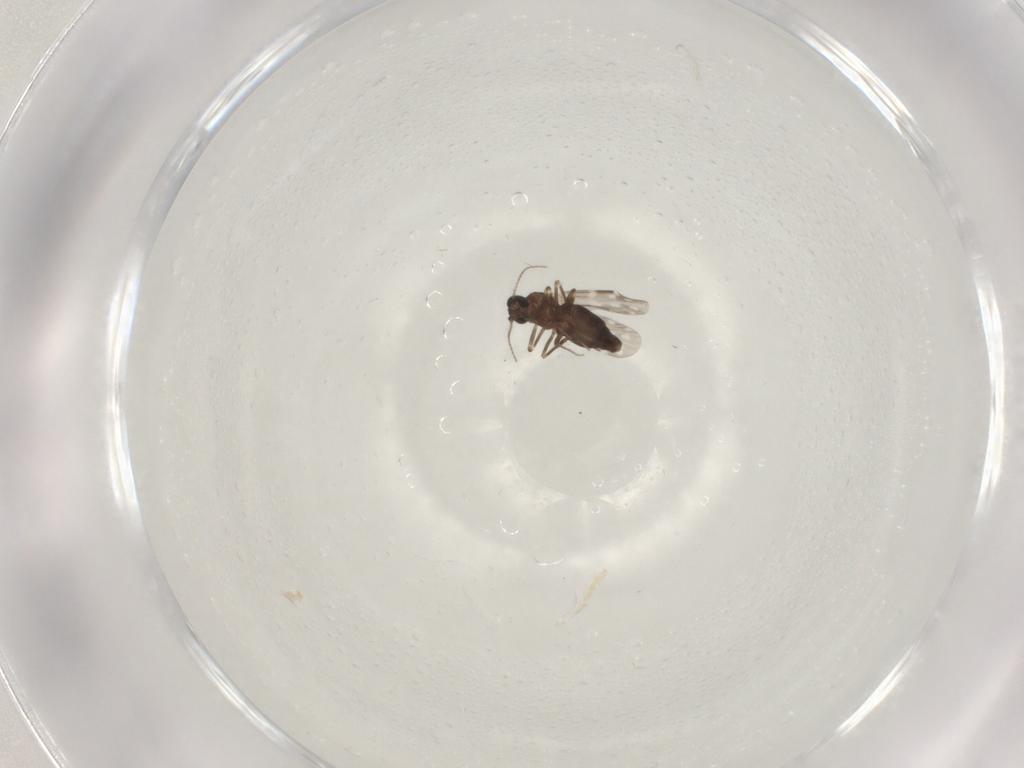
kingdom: Animalia
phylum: Arthropoda
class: Insecta
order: Diptera
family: Ceratopogonidae
